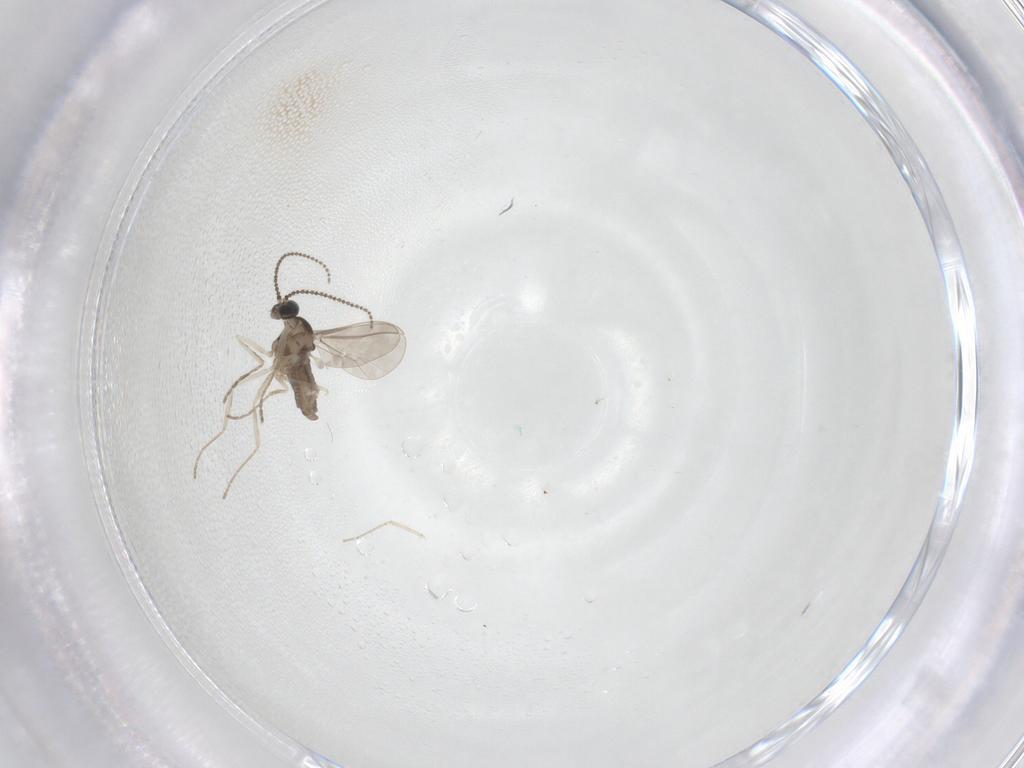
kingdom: Animalia
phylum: Arthropoda
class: Insecta
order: Diptera
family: Cecidomyiidae
